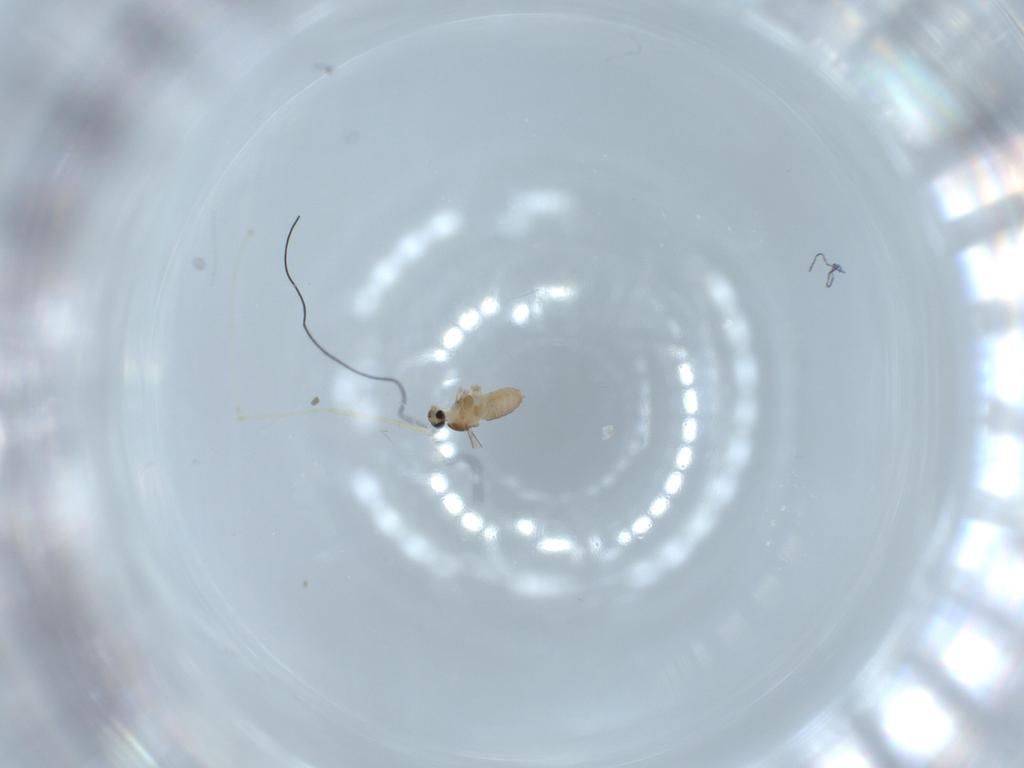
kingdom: Animalia
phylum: Arthropoda
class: Insecta
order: Diptera
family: Cecidomyiidae
